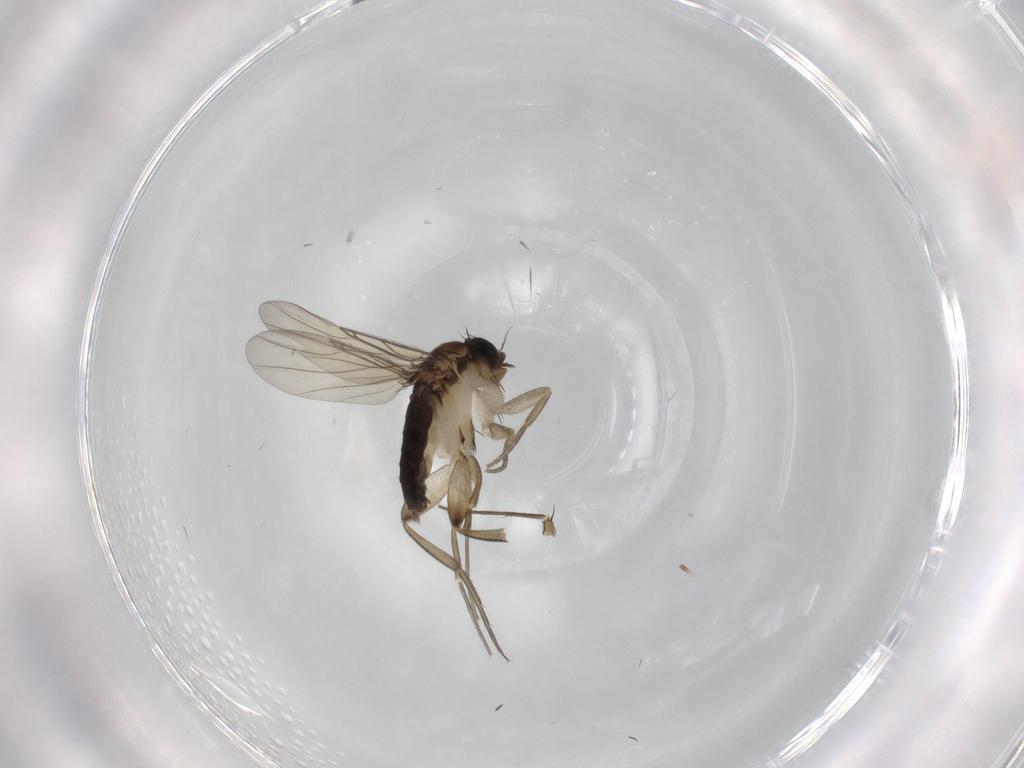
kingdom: Animalia
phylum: Arthropoda
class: Insecta
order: Diptera
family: Phoridae
